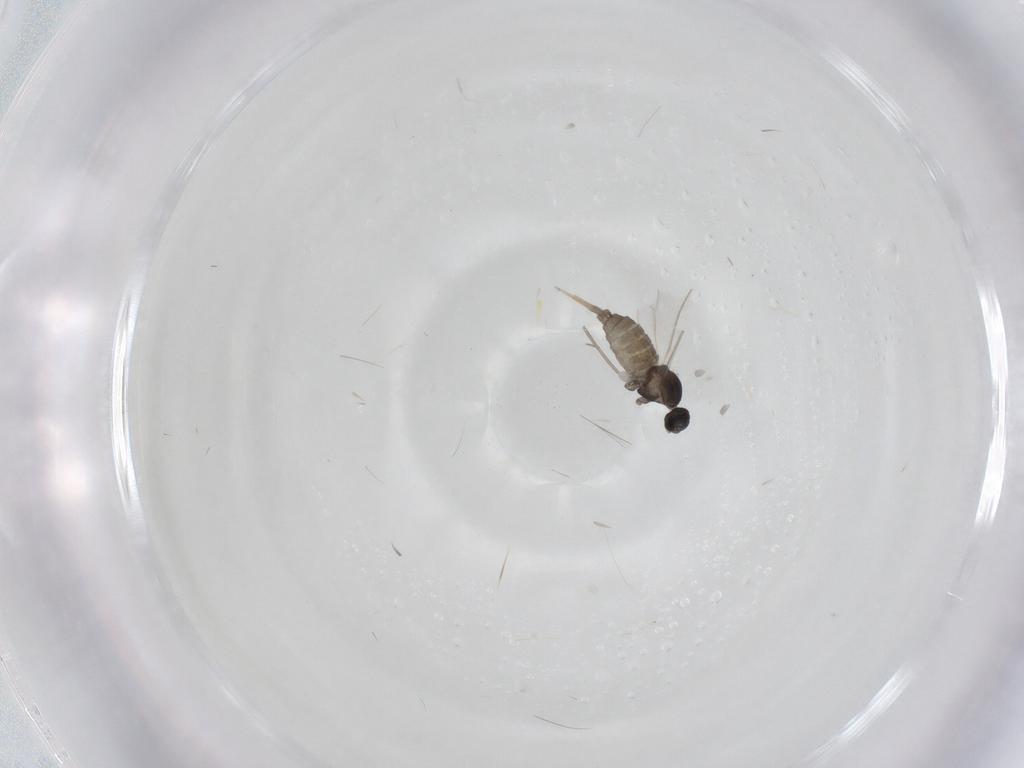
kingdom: Animalia
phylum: Arthropoda
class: Insecta
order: Diptera
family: Cecidomyiidae
